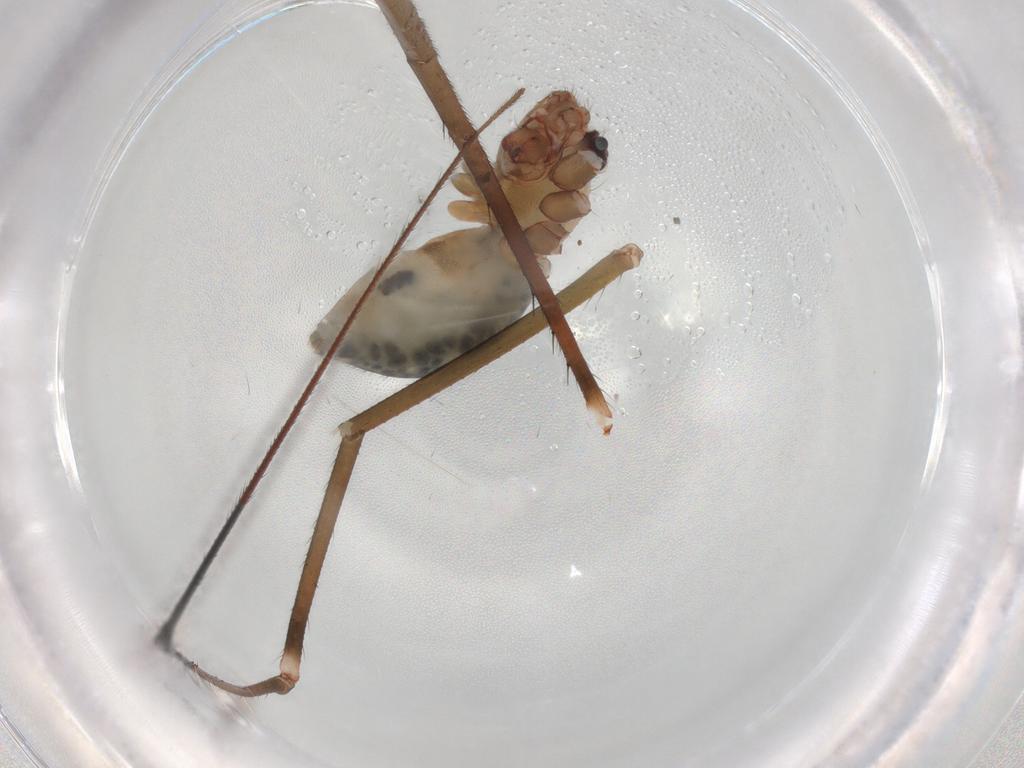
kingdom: Animalia
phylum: Arthropoda
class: Arachnida
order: Araneae
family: Pholcidae
